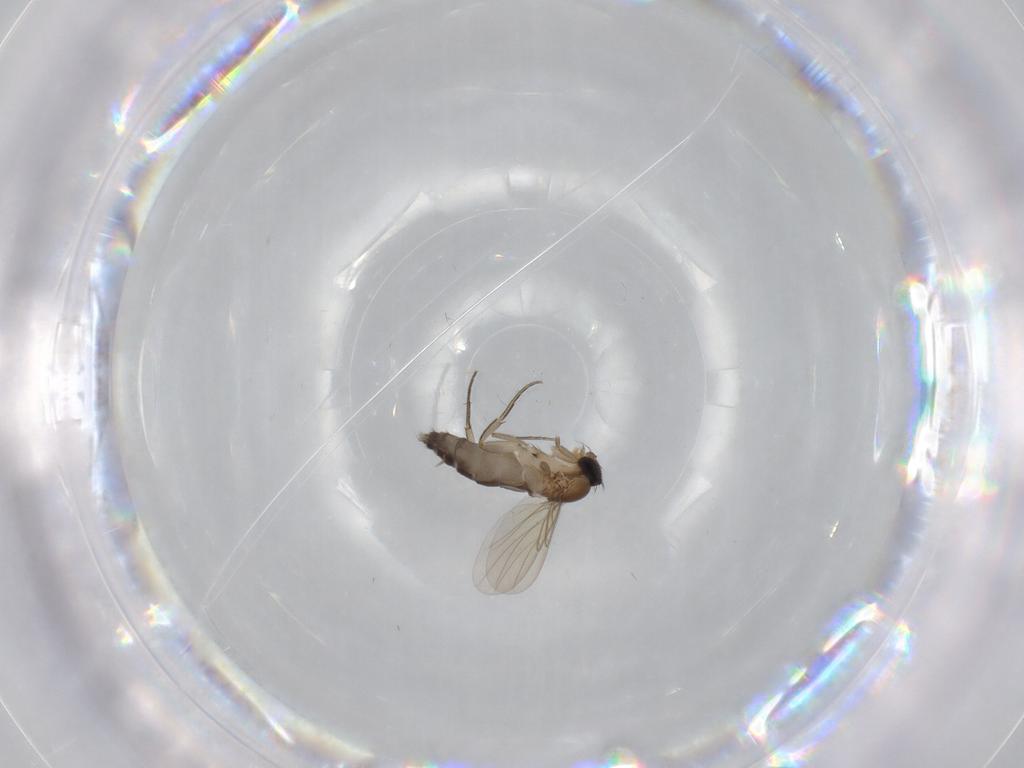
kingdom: Animalia
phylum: Arthropoda
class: Insecta
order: Diptera
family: Phoridae
